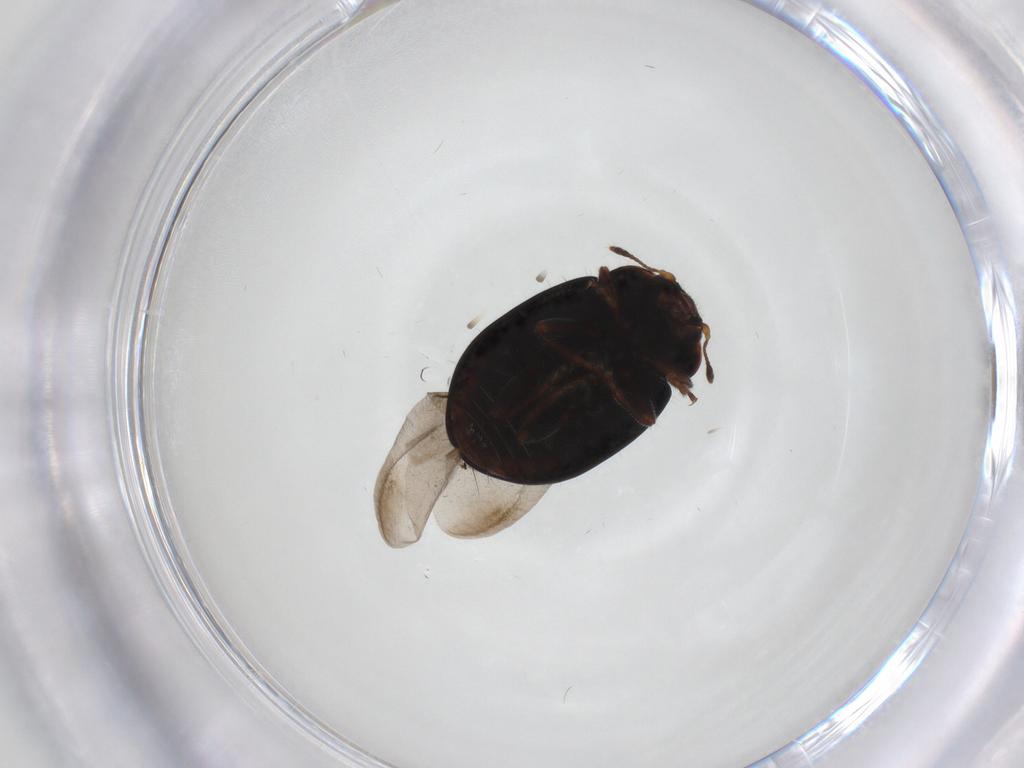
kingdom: Animalia
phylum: Arthropoda
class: Insecta
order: Coleoptera
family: Coccinellidae
